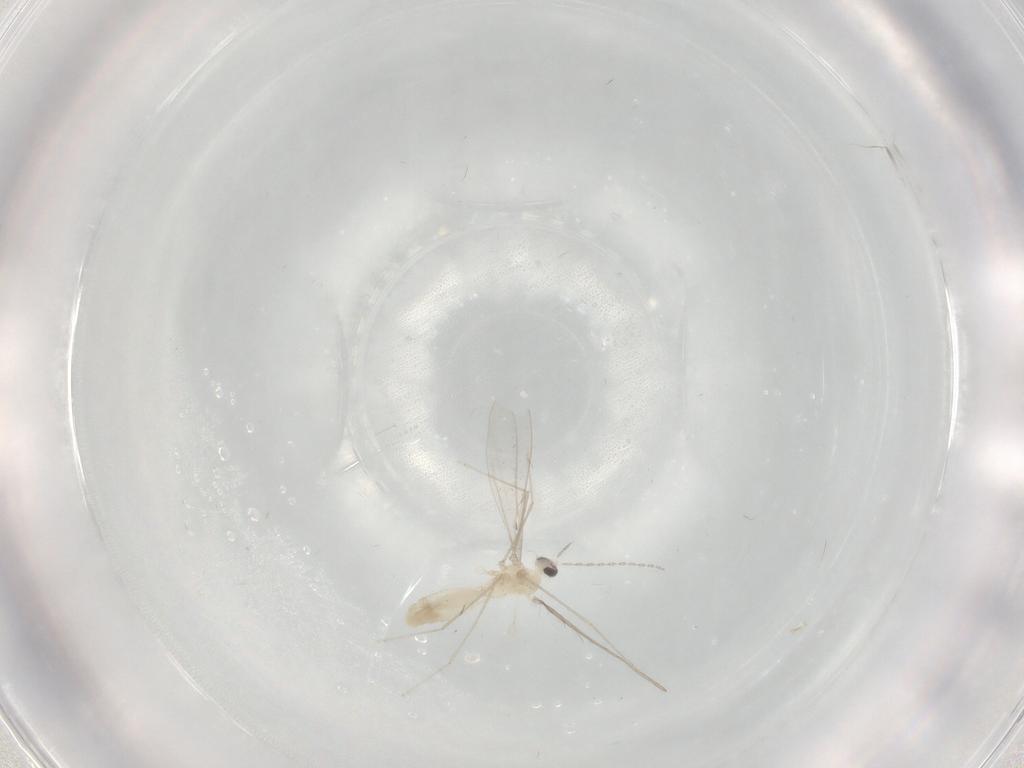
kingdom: Animalia
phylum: Arthropoda
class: Insecta
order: Diptera
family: Cecidomyiidae
